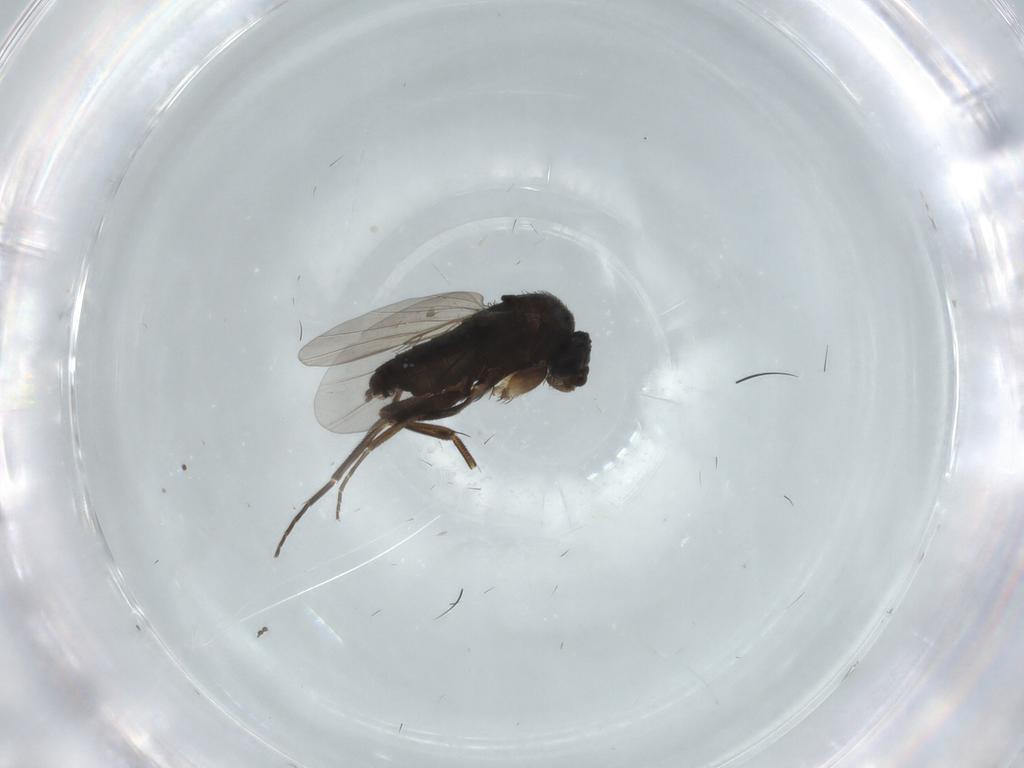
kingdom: Animalia
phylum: Arthropoda
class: Insecta
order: Diptera
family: Phoridae
